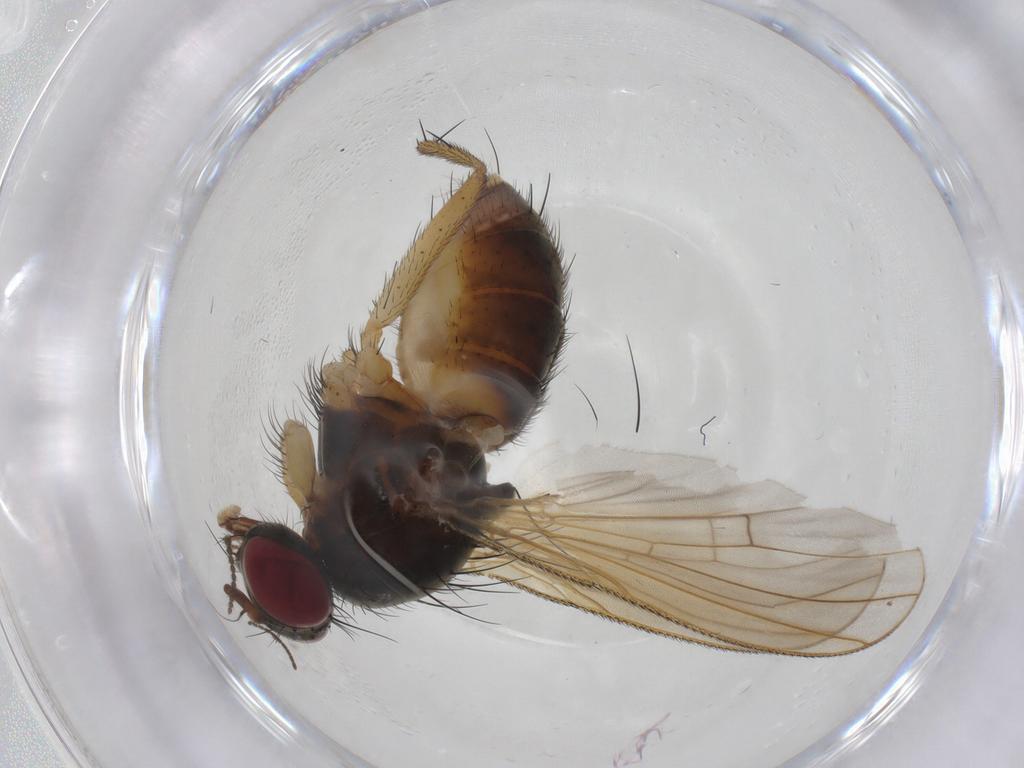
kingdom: Animalia
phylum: Arthropoda
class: Insecta
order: Diptera
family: Muscidae
